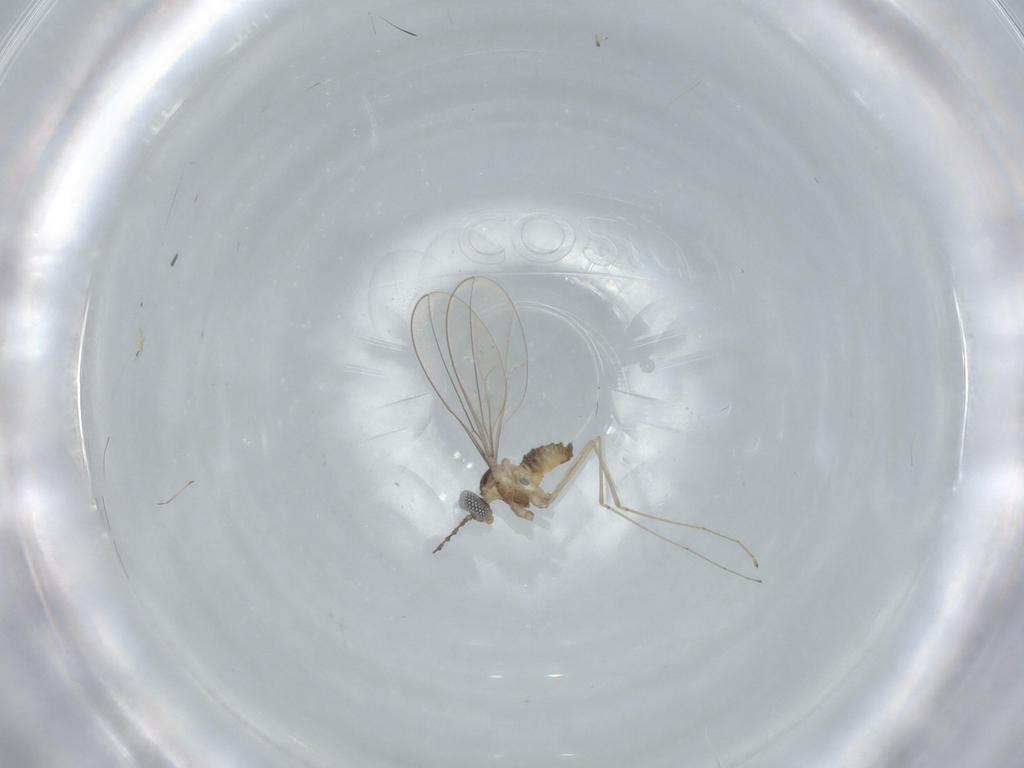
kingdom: Animalia
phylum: Arthropoda
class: Insecta
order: Diptera
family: Cecidomyiidae
